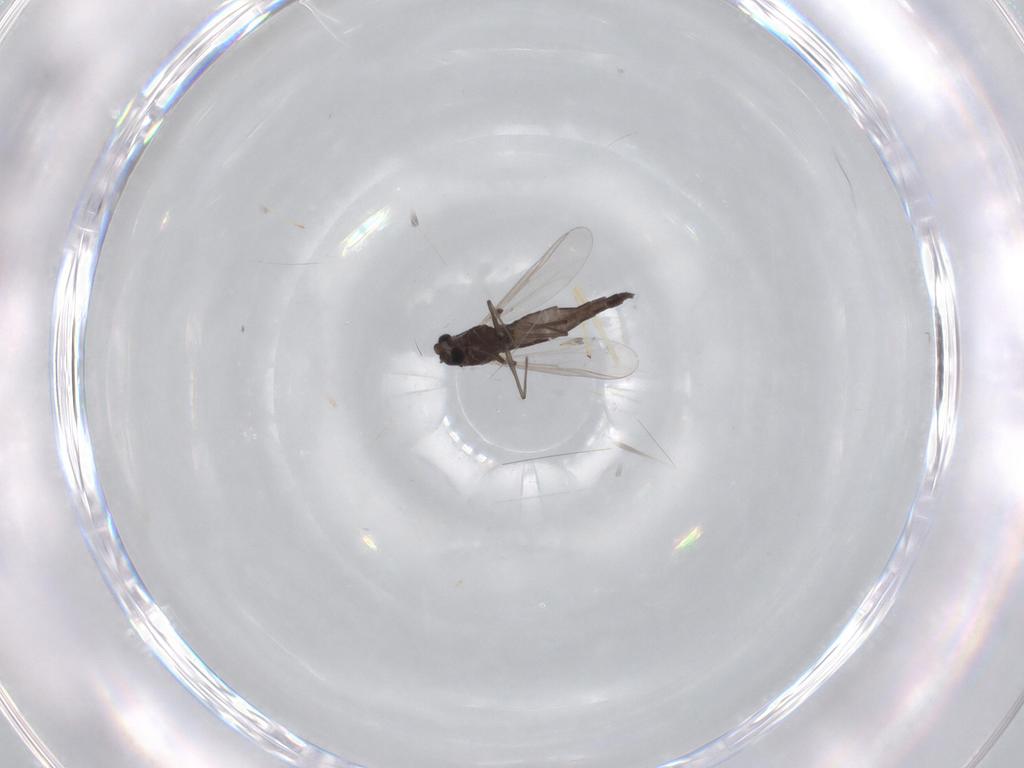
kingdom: Animalia
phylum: Arthropoda
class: Insecta
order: Diptera
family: Chironomidae
